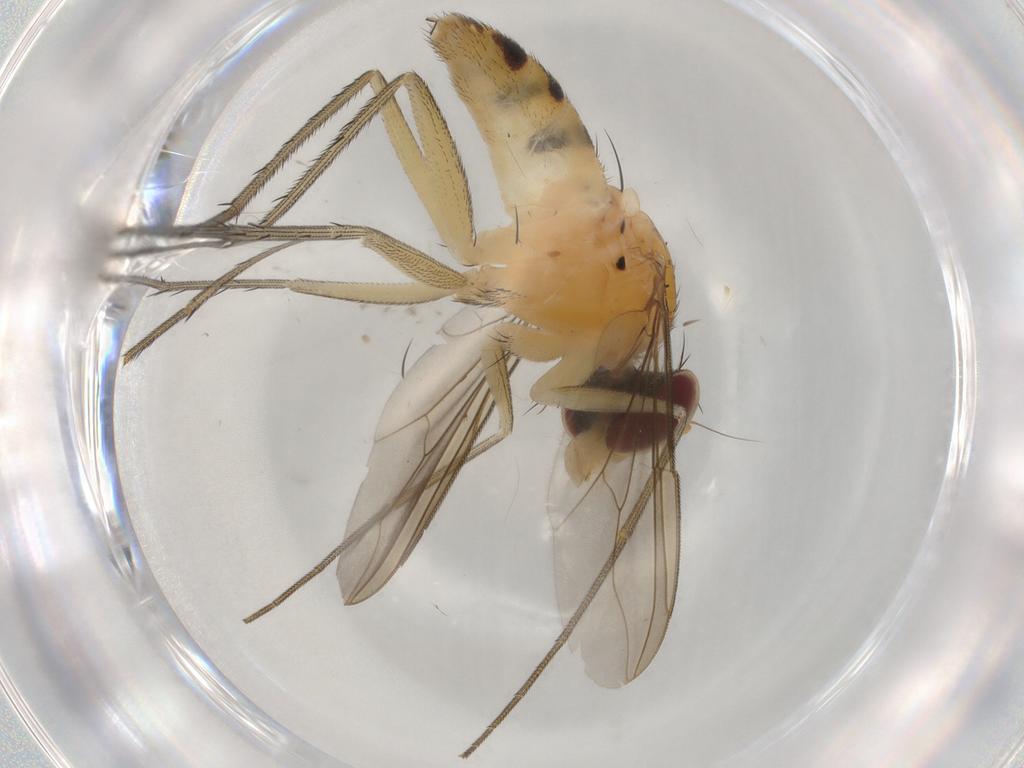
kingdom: Animalia
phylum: Arthropoda
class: Insecta
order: Diptera
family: Dolichopodidae
